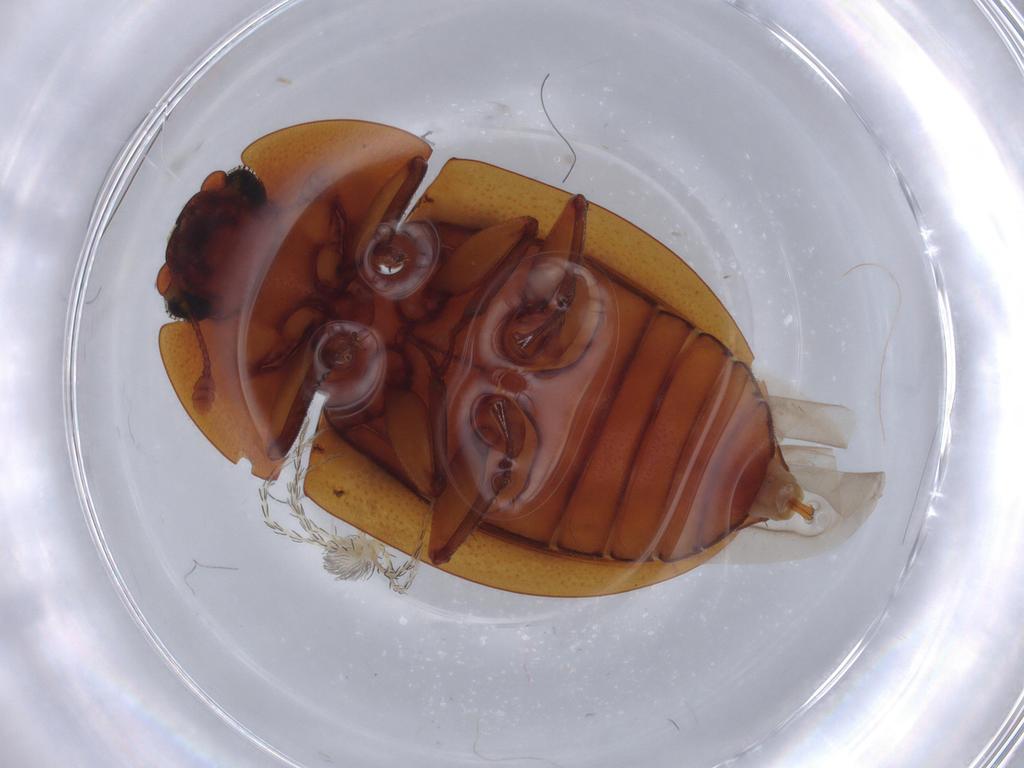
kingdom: Animalia
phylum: Arthropoda
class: Insecta
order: Coleoptera
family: Nitidulidae
